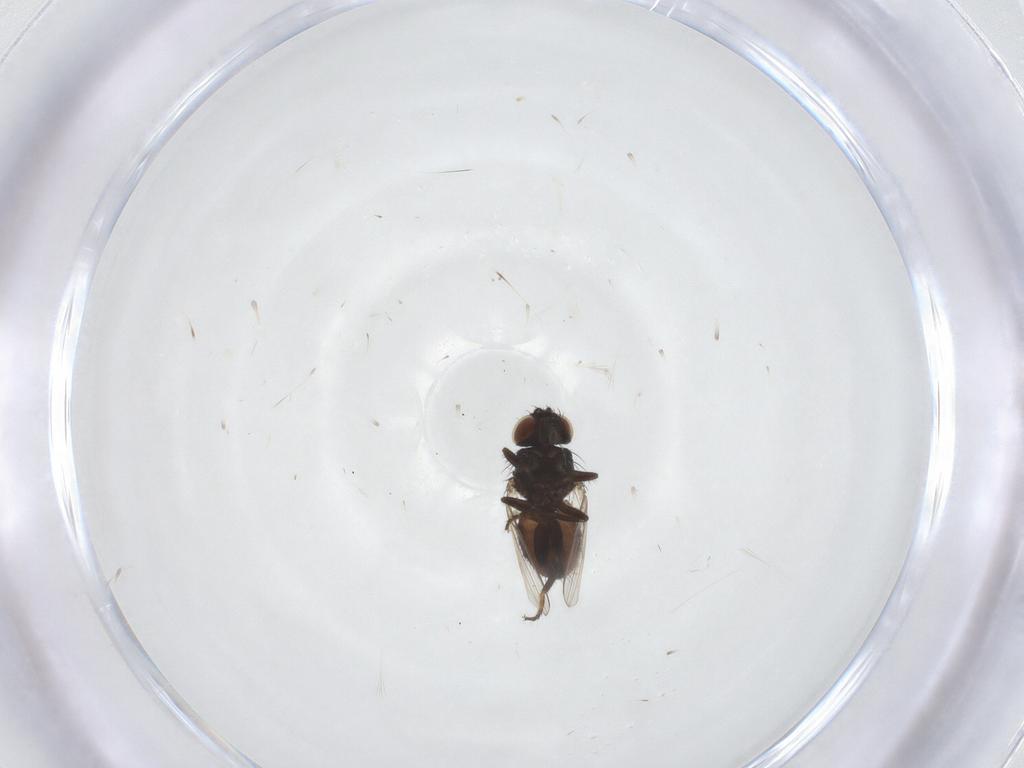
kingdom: Animalia
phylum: Arthropoda
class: Insecta
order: Diptera
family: Milichiidae
